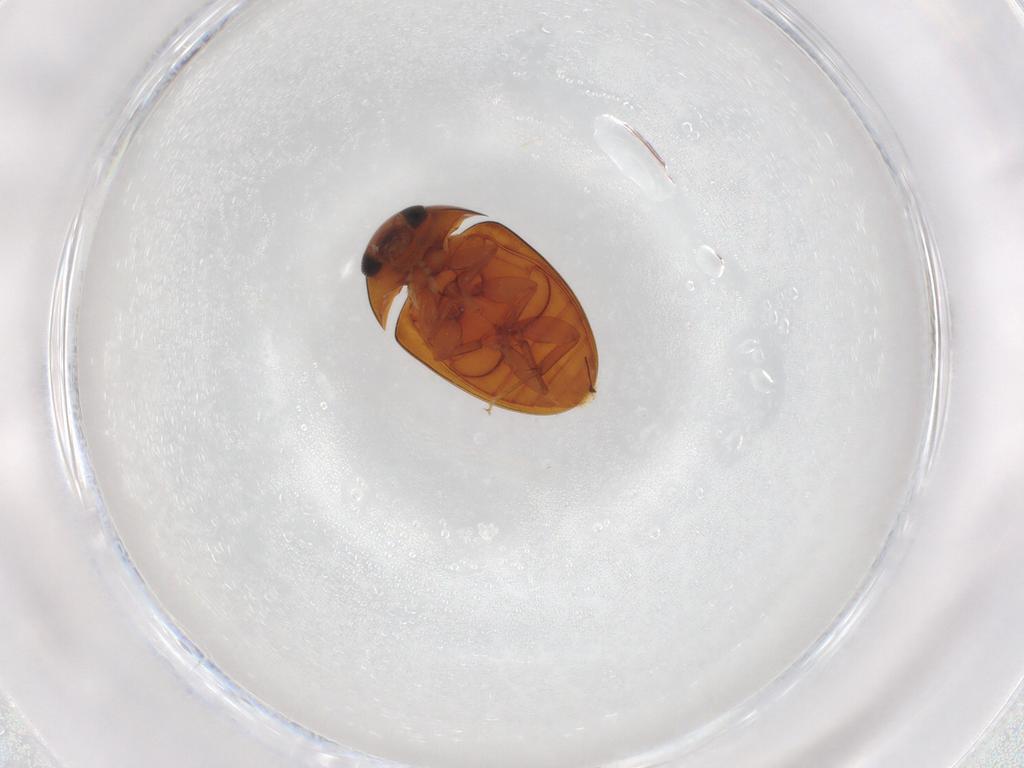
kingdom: Animalia
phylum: Arthropoda
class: Insecta
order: Coleoptera
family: Phalacridae
